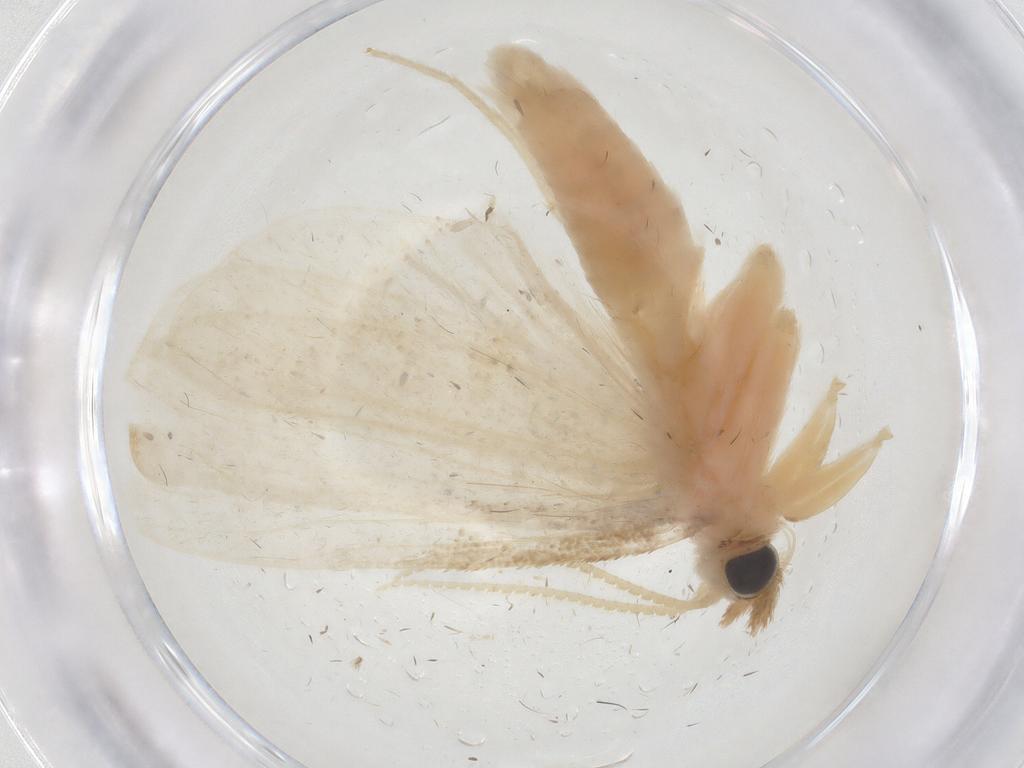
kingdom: Animalia
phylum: Arthropoda
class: Insecta
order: Lepidoptera
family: Crambidae
